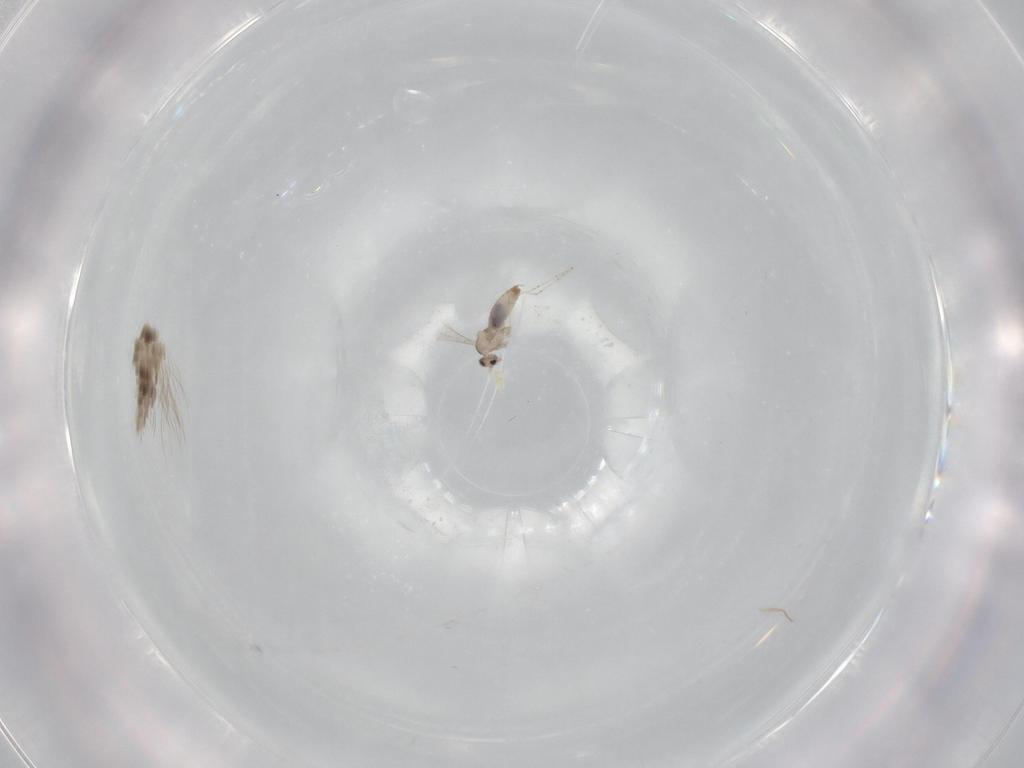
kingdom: Animalia
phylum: Arthropoda
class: Insecta
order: Diptera
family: Cecidomyiidae
